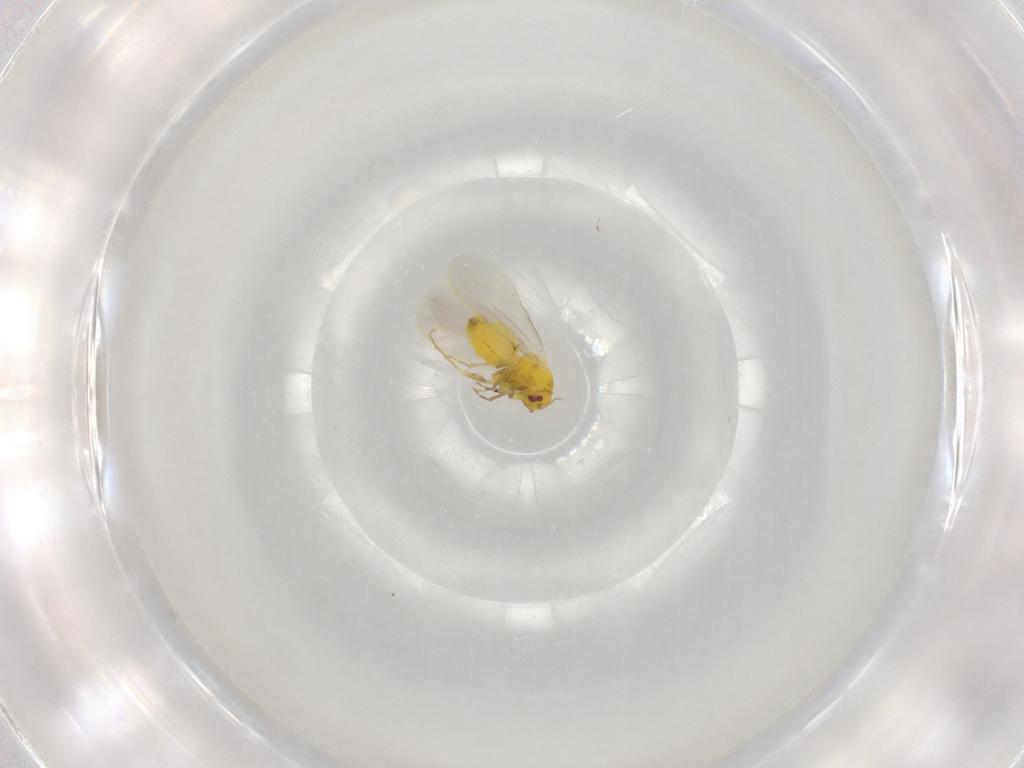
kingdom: Animalia
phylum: Arthropoda
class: Insecta
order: Hemiptera
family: Aleyrodidae
